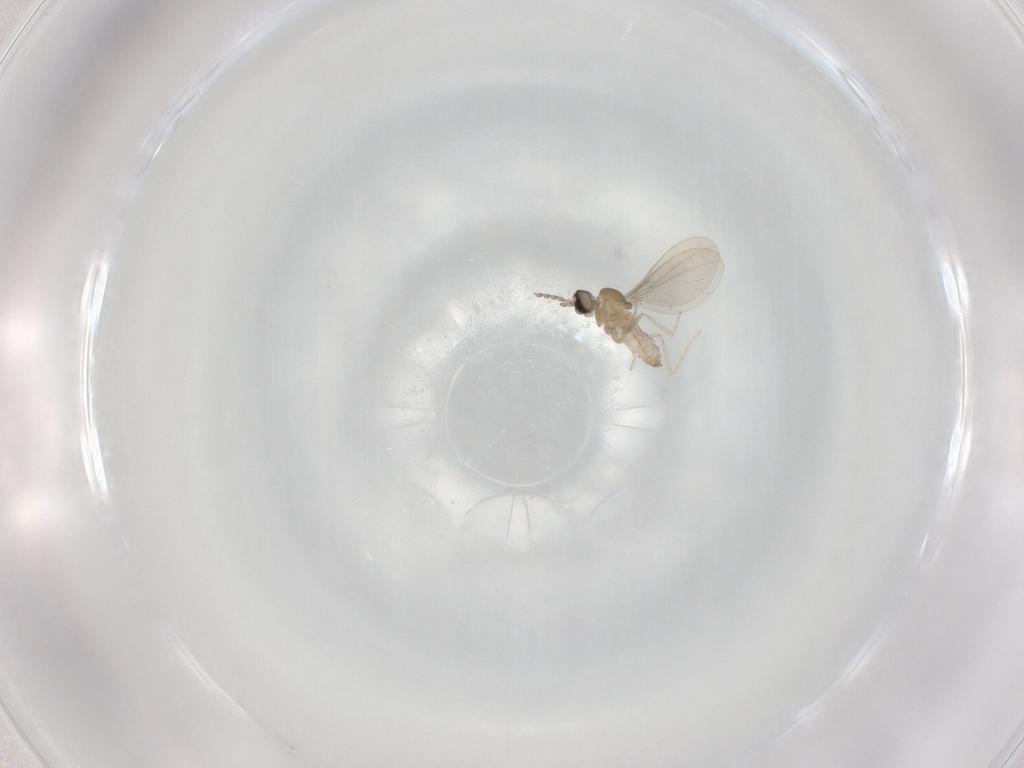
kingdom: Animalia
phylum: Arthropoda
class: Insecta
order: Diptera
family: Cecidomyiidae
